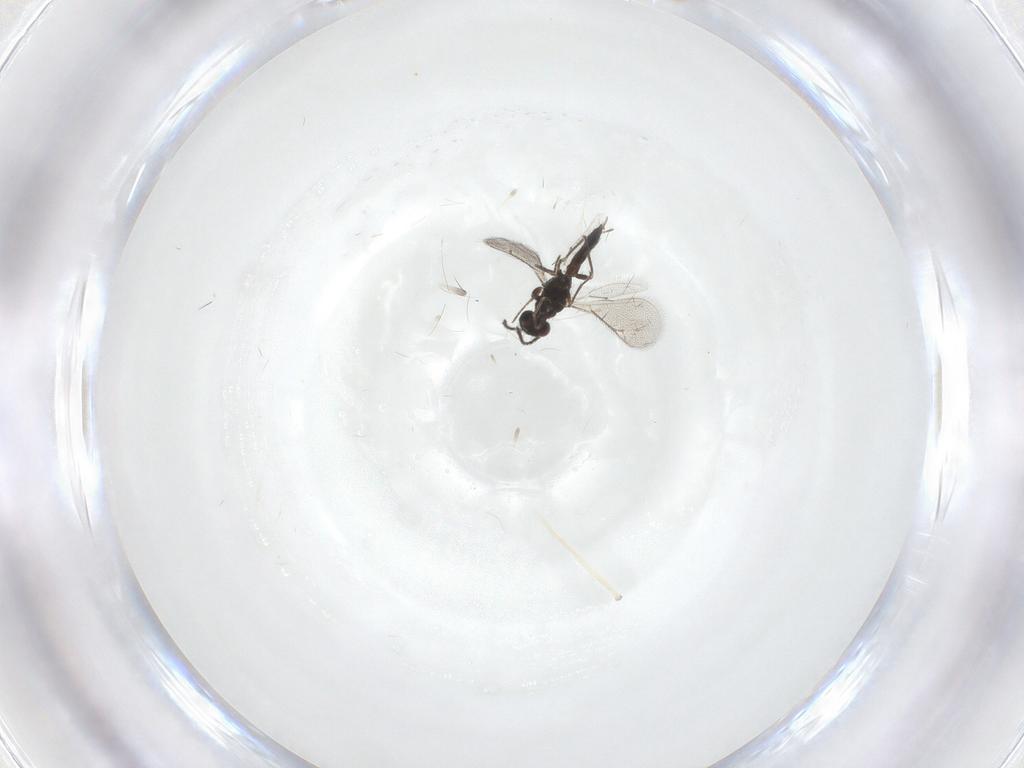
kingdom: Animalia
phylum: Arthropoda
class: Insecta
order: Hymenoptera
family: Eulophidae
